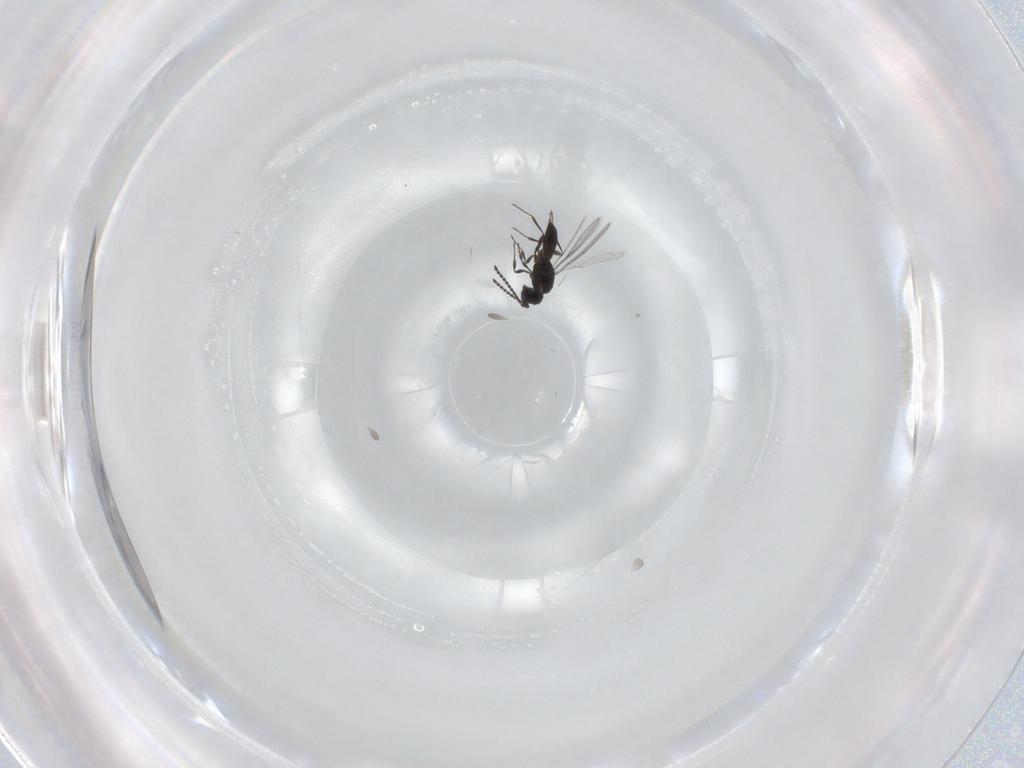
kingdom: Animalia
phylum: Arthropoda
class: Insecta
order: Hymenoptera
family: Scelionidae
